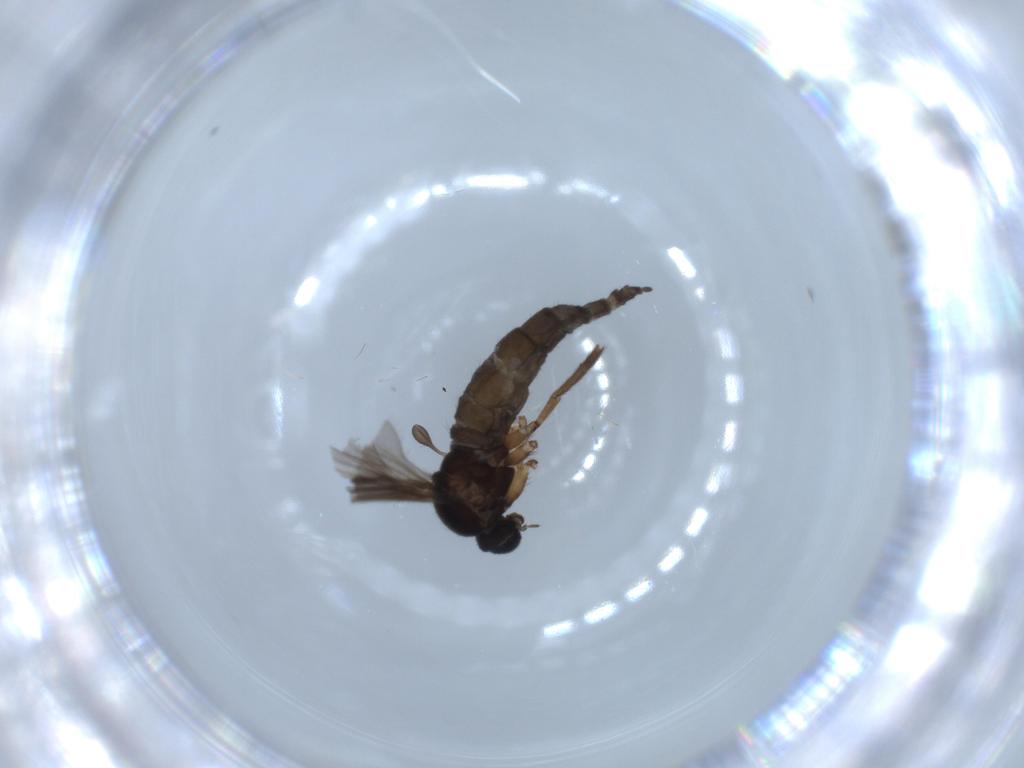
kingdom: Animalia
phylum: Arthropoda
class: Insecta
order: Diptera
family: Sciaridae
